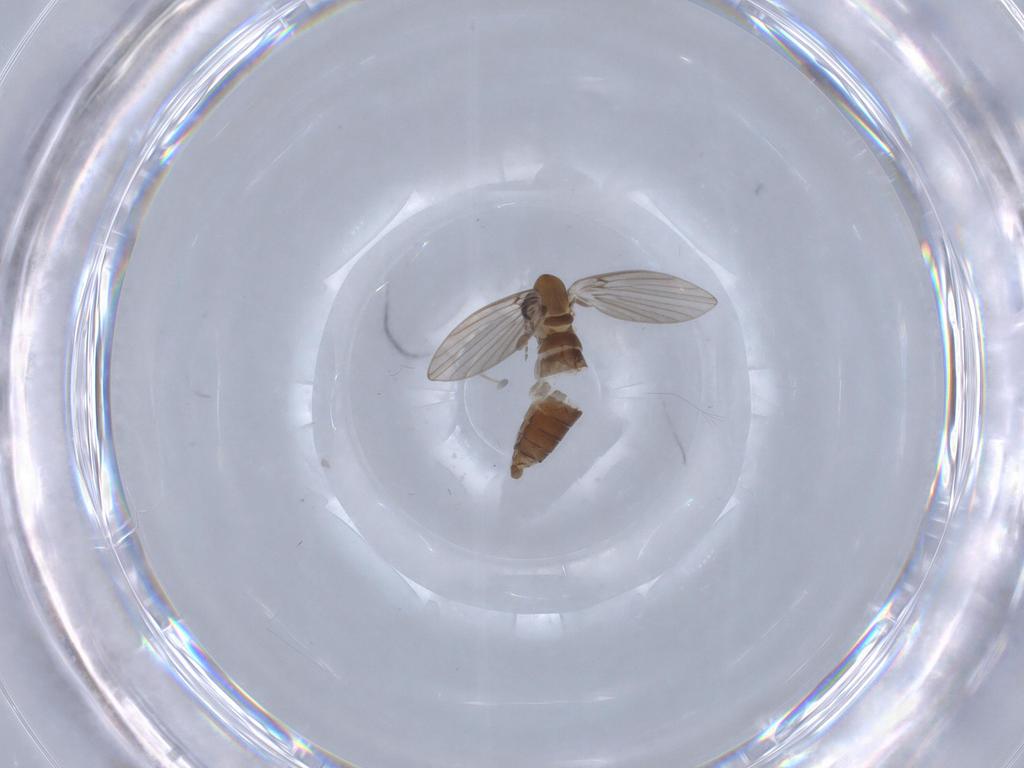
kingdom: Animalia
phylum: Arthropoda
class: Insecta
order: Diptera
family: Psychodidae
